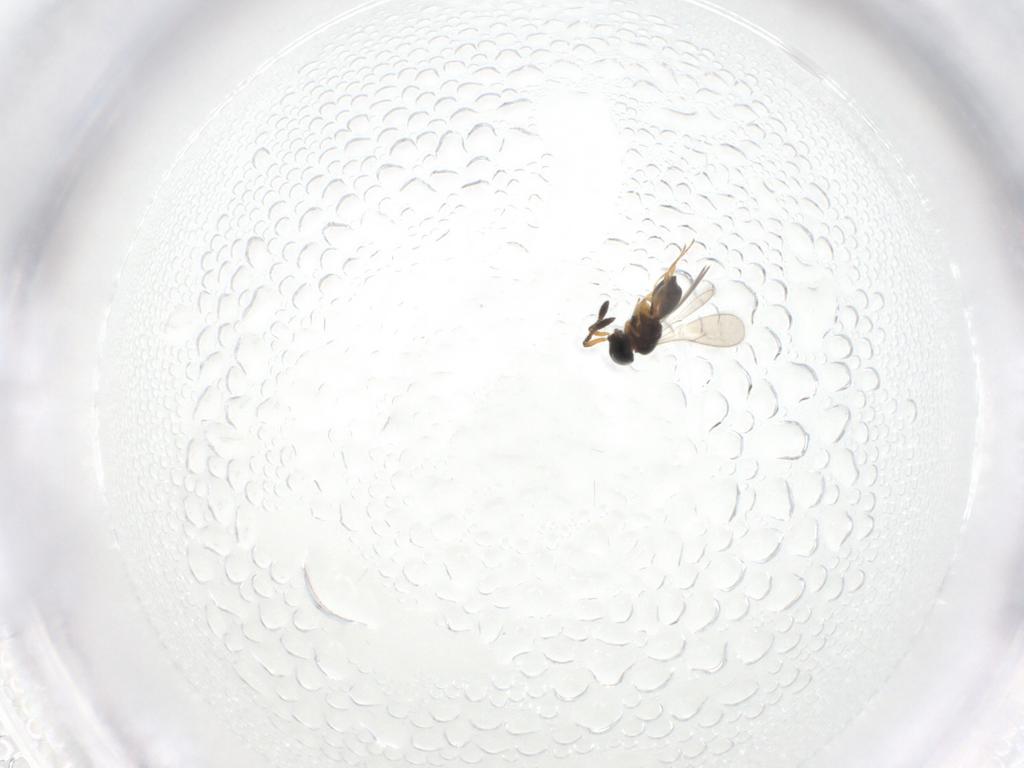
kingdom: Animalia
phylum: Arthropoda
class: Insecta
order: Hymenoptera
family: Scelionidae
